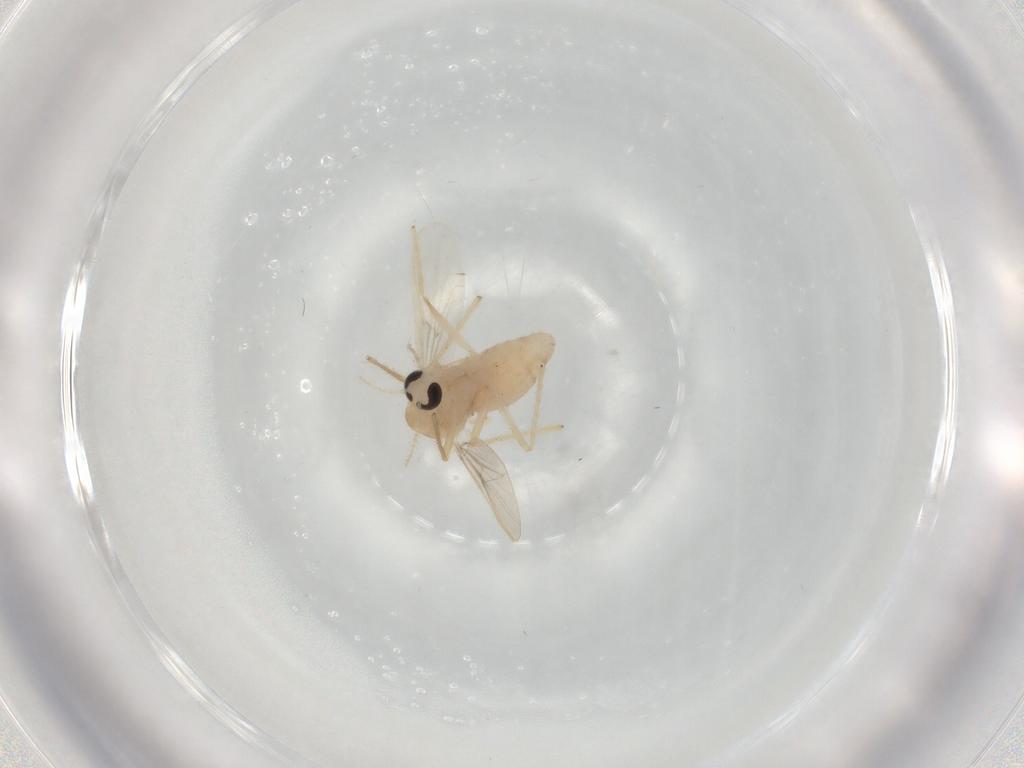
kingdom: Animalia
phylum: Arthropoda
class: Insecta
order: Diptera
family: Chironomidae
